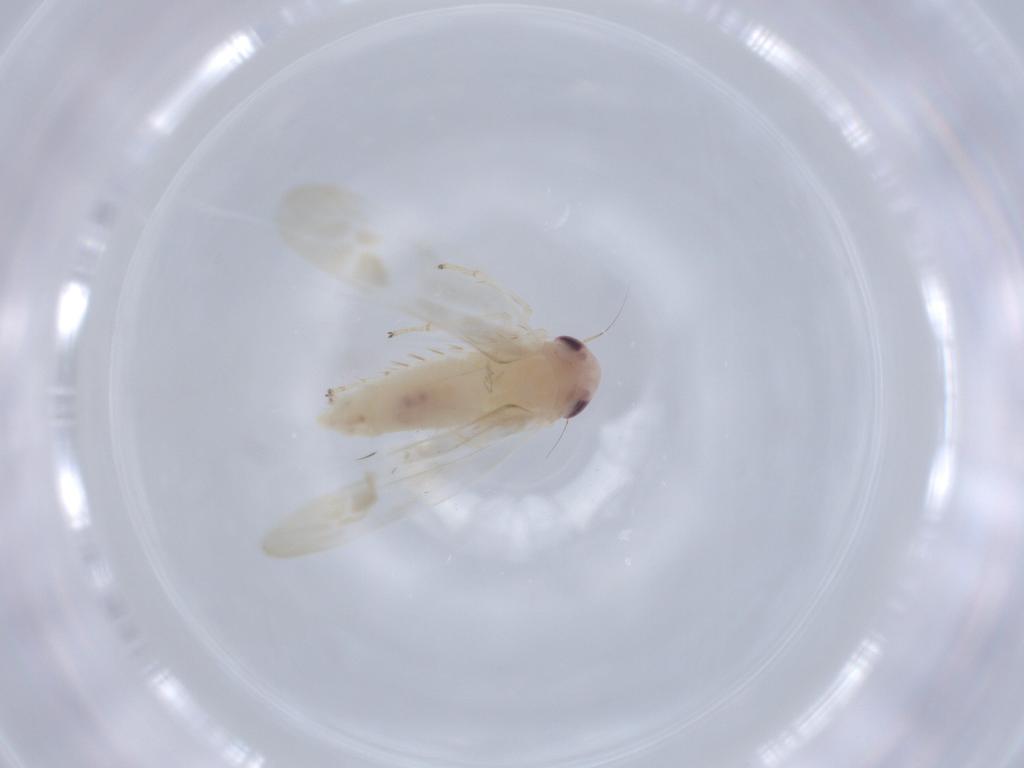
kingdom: Animalia
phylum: Arthropoda
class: Insecta
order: Hemiptera
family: Cicadellidae
